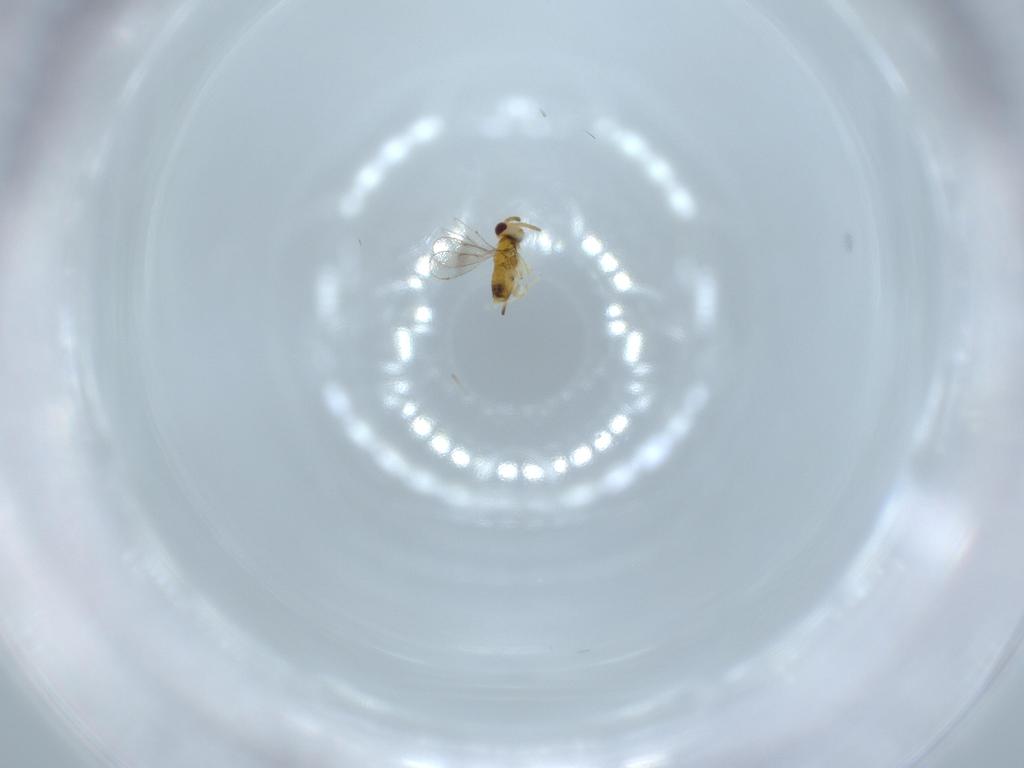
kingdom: Animalia
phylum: Arthropoda
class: Insecta
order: Hymenoptera
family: Aphelinidae
